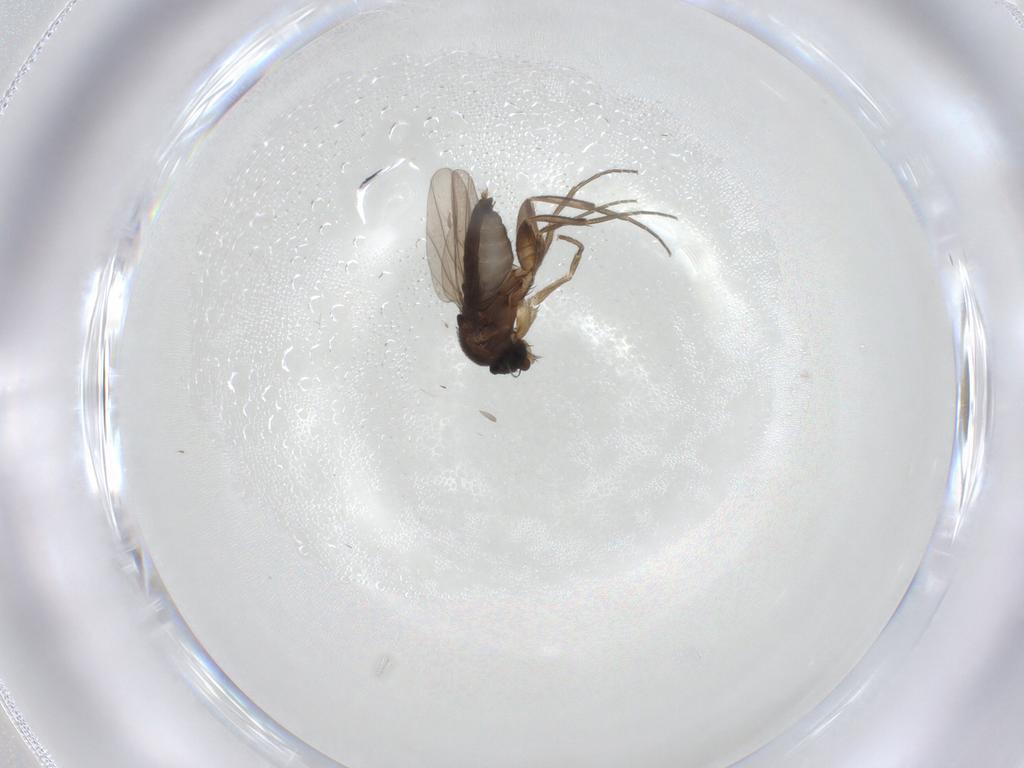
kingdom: Animalia
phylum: Arthropoda
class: Insecta
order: Diptera
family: Phoridae
